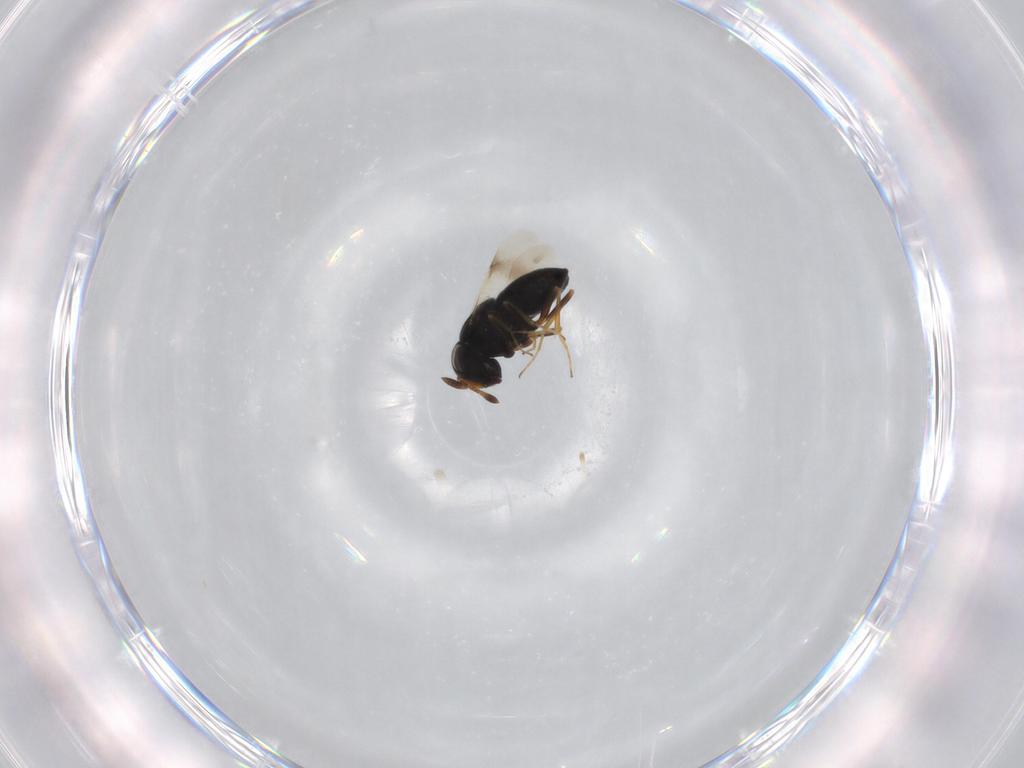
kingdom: Animalia
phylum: Arthropoda
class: Insecta
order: Hymenoptera
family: Scelionidae
